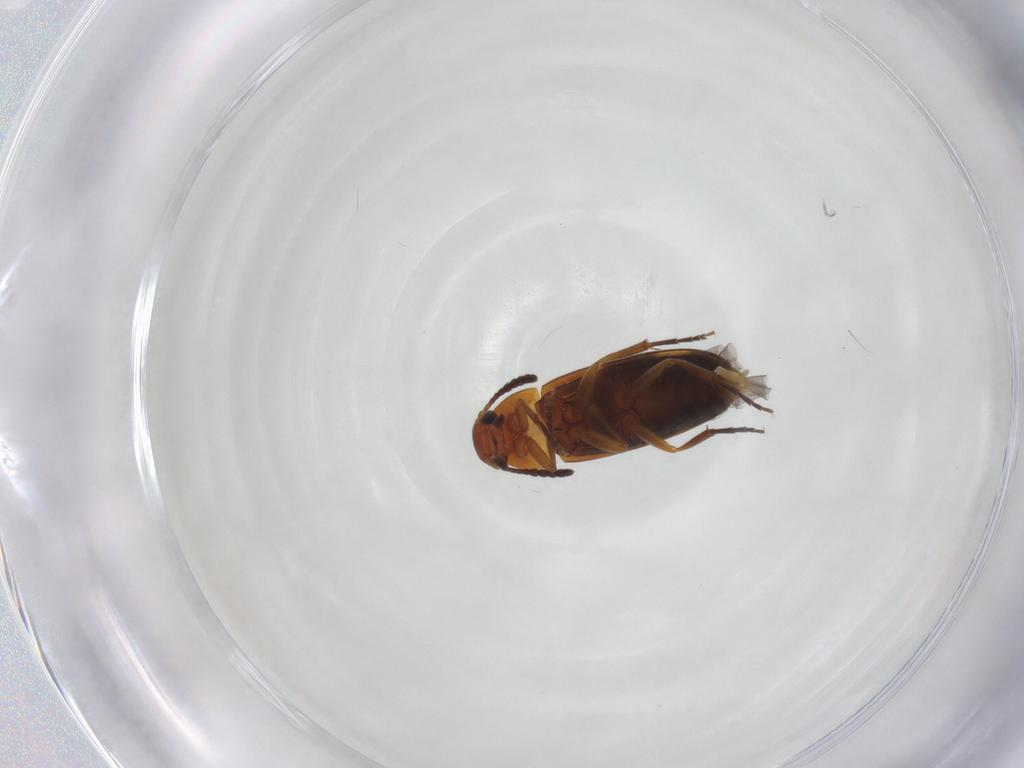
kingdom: Animalia
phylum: Arthropoda
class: Insecta
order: Coleoptera
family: Scraptiidae
